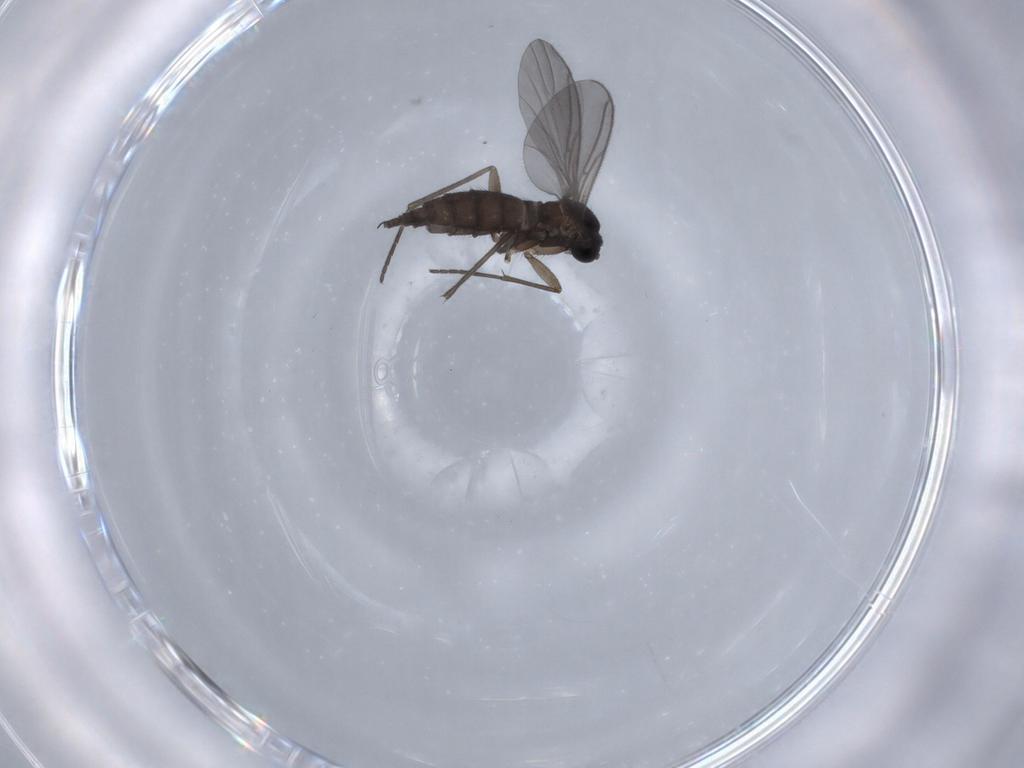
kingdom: Animalia
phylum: Arthropoda
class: Insecta
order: Diptera
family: Sciaridae
